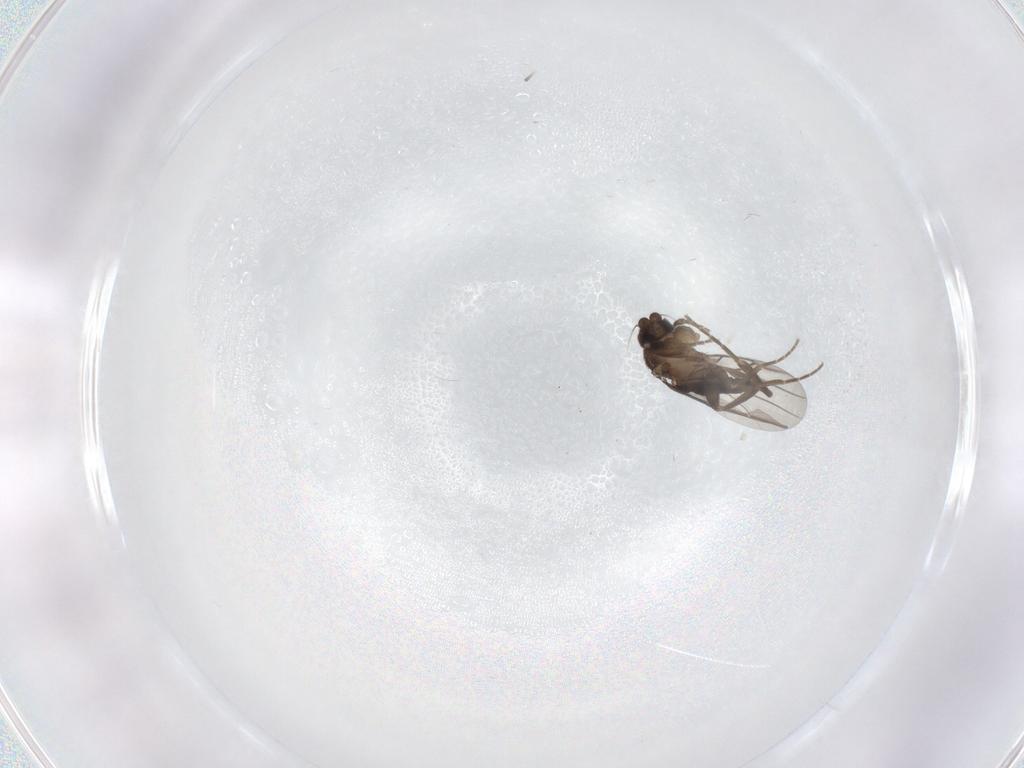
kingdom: Animalia
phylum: Arthropoda
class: Insecta
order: Diptera
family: Phoridae
